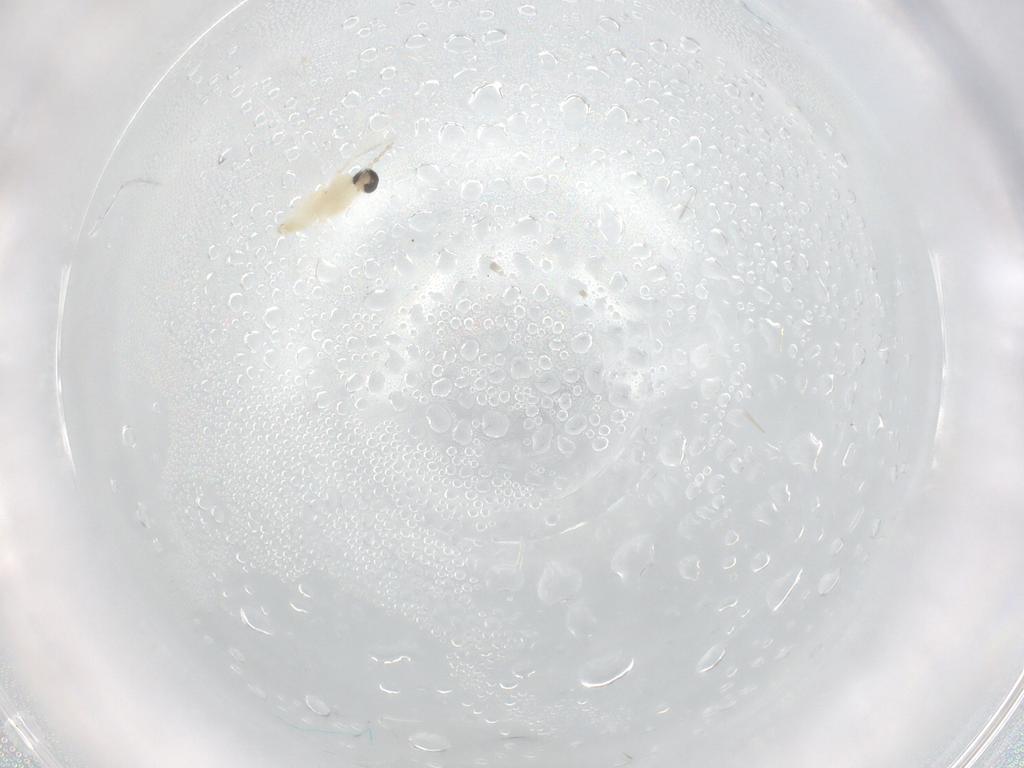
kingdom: Animalia
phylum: Arthropoda
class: Insecta
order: Diptera
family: Cecidomyiidae
